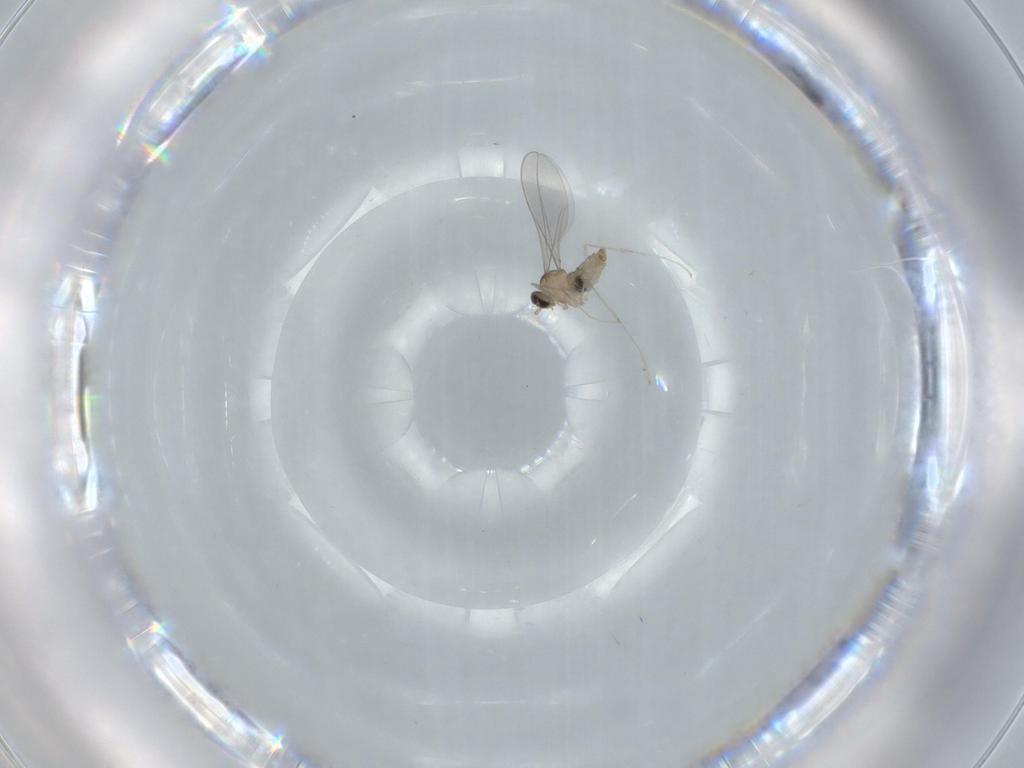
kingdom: Animalia
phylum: Arthropoda
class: Insecta
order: Diptera
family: Cecidomyiidae
